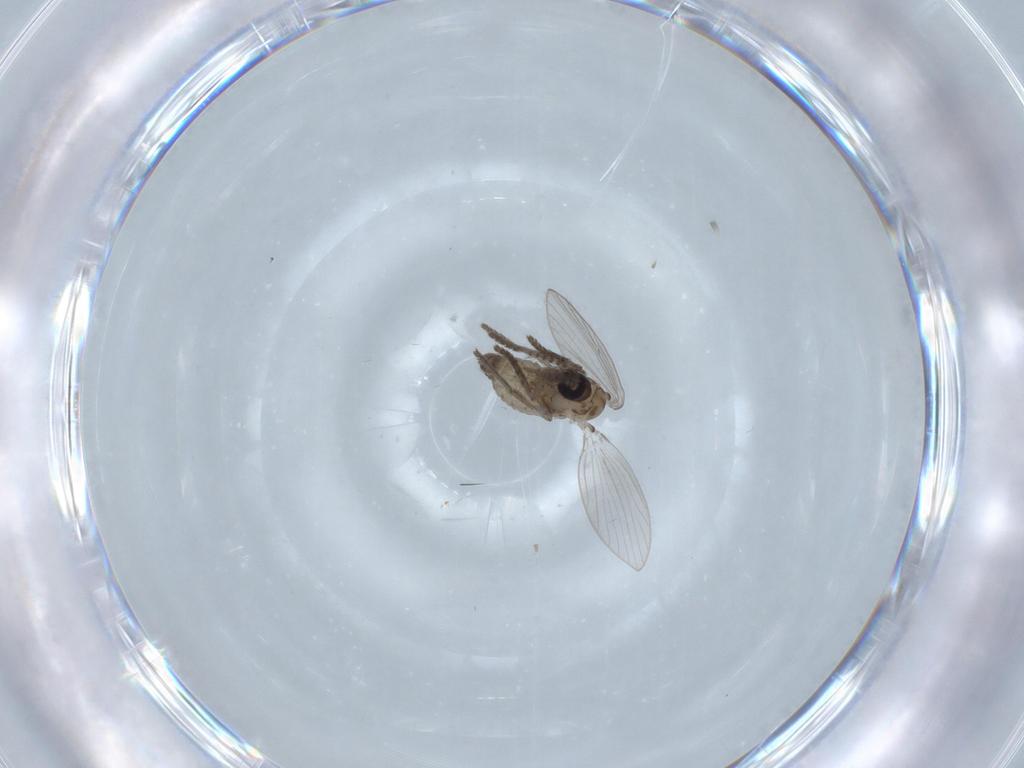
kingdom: Animalia
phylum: Arthropoda
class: Insecta
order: Diptera
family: Psychodidae
